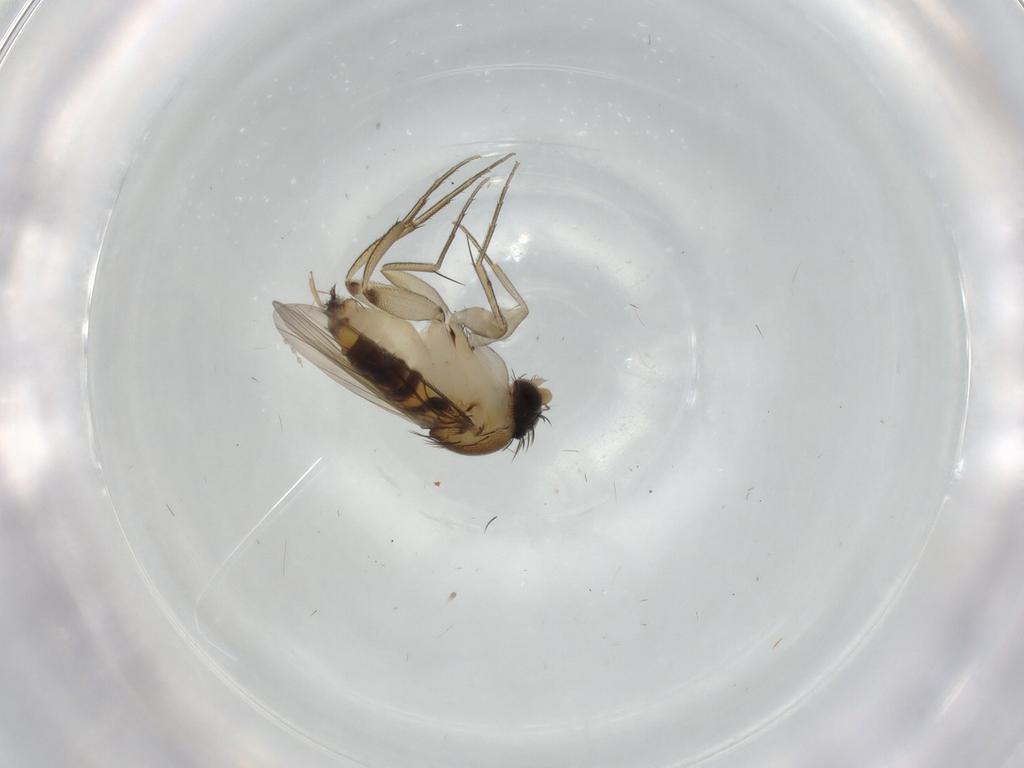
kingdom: Animalia
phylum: Arthropoda
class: Insecta
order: Diptera
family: Phoridae
